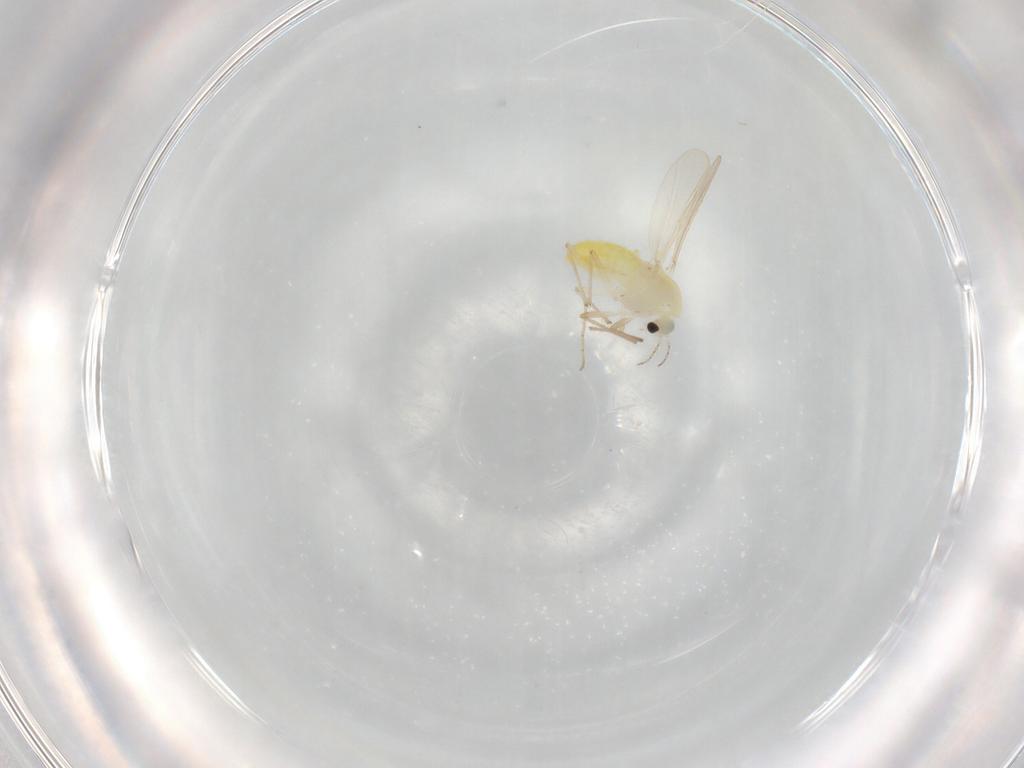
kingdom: Animalia
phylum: Arthropoda
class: Insecta
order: Diptera
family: Chironomidae
